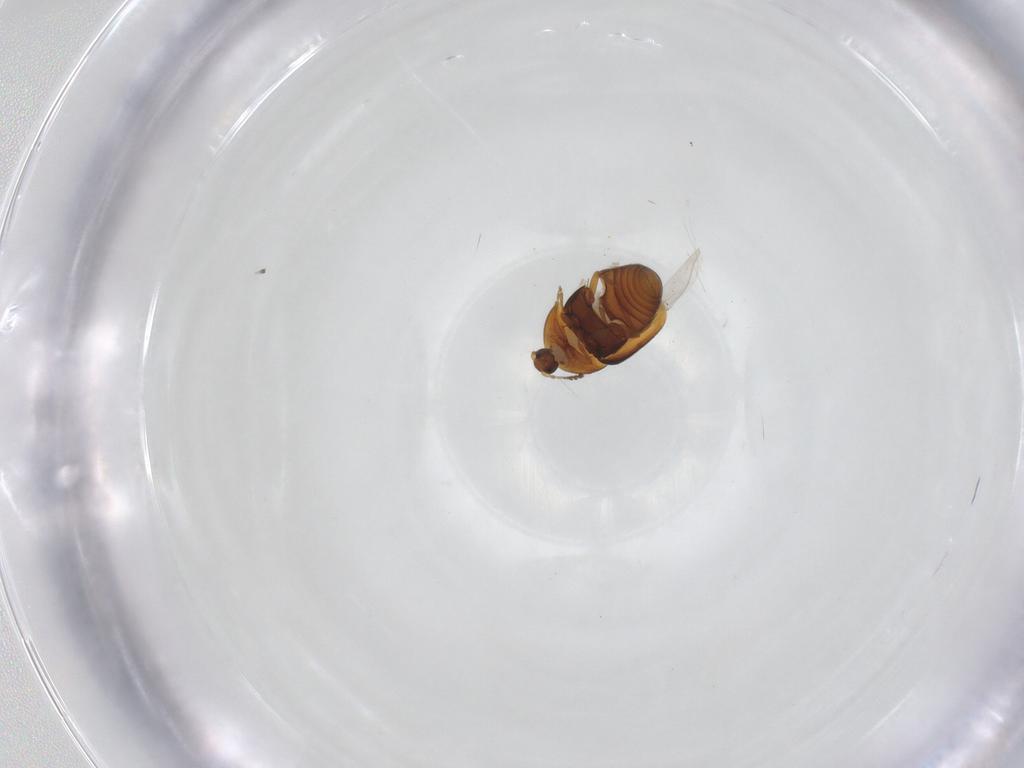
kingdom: Animalia
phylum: Arthropoda
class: Insecta
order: Coleoptera
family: Corylophidae
